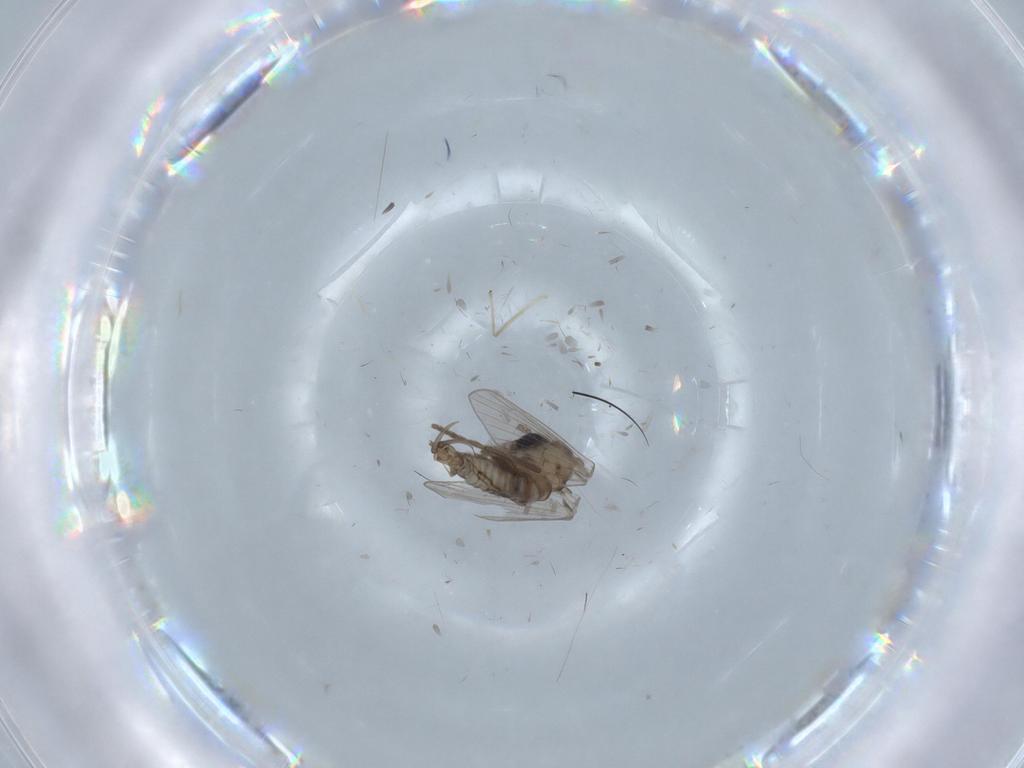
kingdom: Animalia
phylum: Arthropoda
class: Insecta
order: Diptera
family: Drosophilidae
